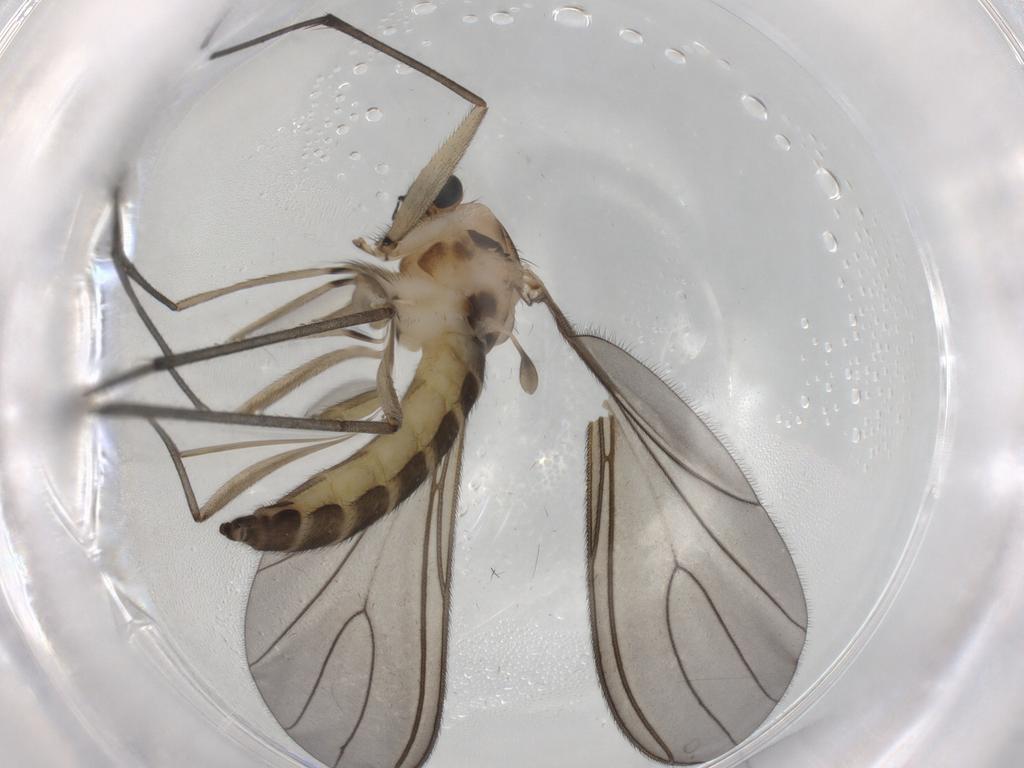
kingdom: Animalia
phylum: Arthropoda
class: Insecta
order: Diptera
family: Sciaridae
